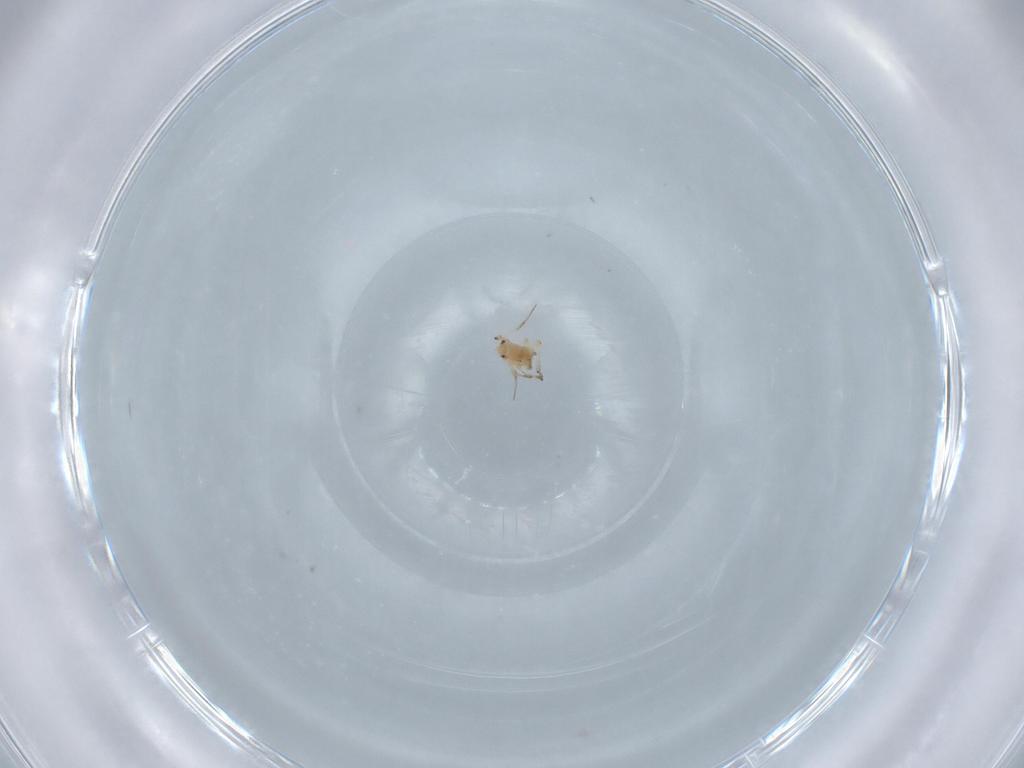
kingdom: Animalia
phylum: Arthropoda
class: Insecta
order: Hemiptera
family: Aphididae
